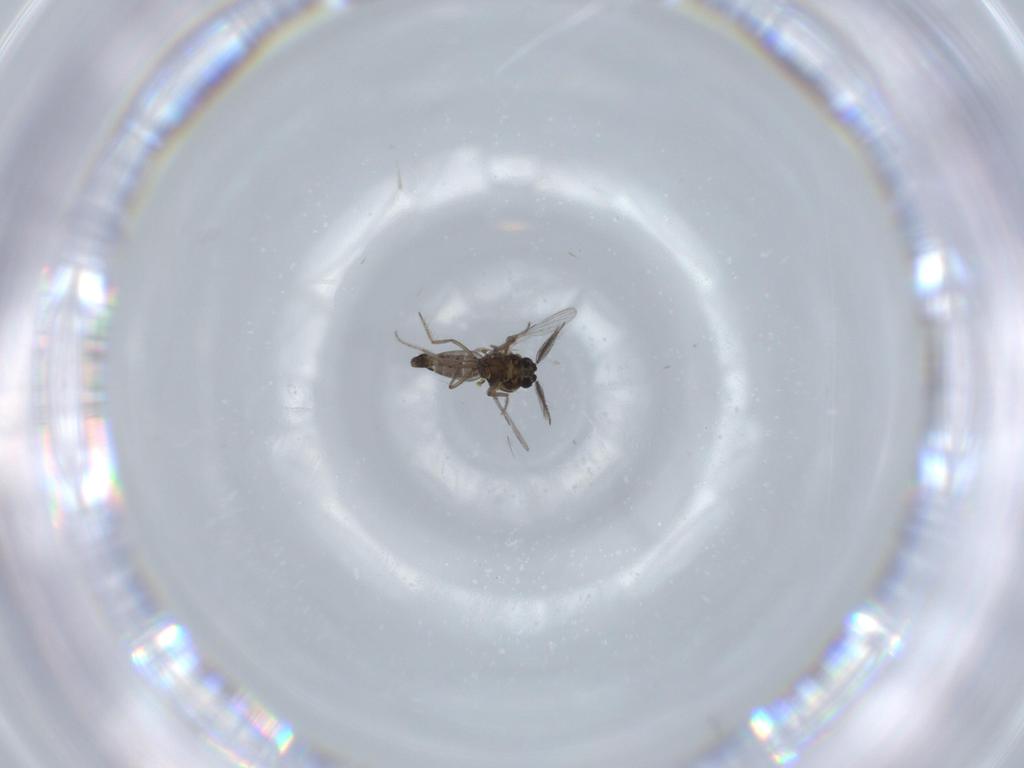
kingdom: Animalia
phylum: Arthropoda
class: Insecta
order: Diptera
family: Ceratopogonidae
